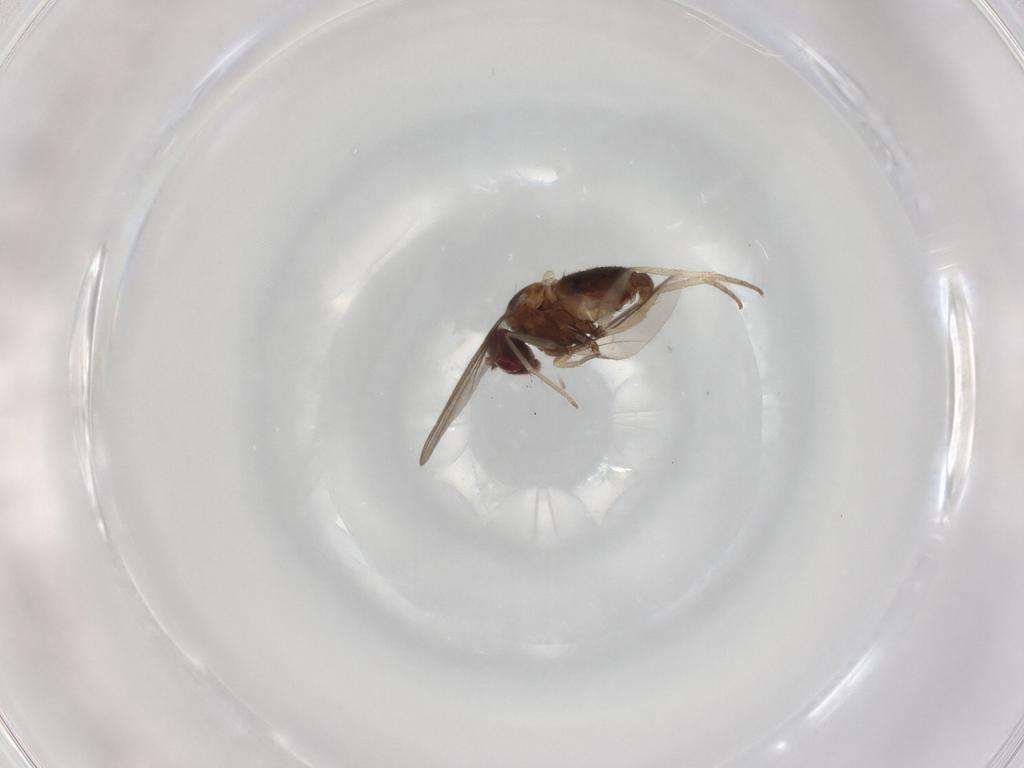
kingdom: Animalia
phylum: Arthropoda
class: Insecta
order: Diptera
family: Dolichopodidae
